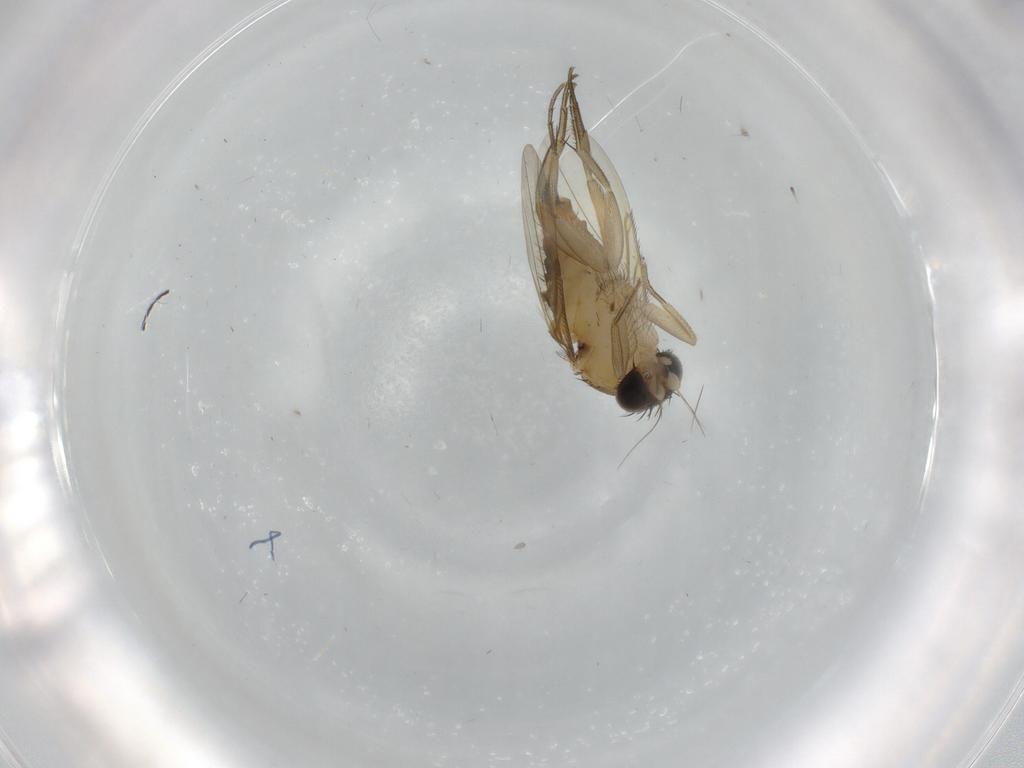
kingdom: Animalia
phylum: Arthropoda
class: Insecta
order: Diptera
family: Phoridae
